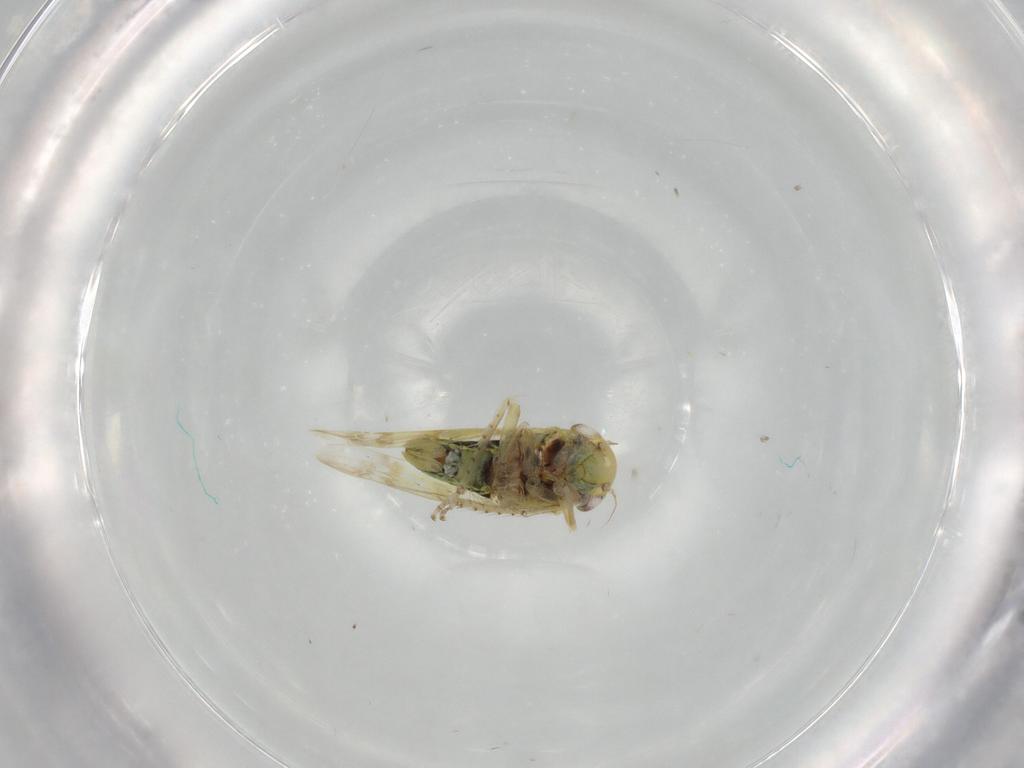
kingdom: Animalia
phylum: Arthropoda
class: Insecta
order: Hemiptera
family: Cicadellidae
